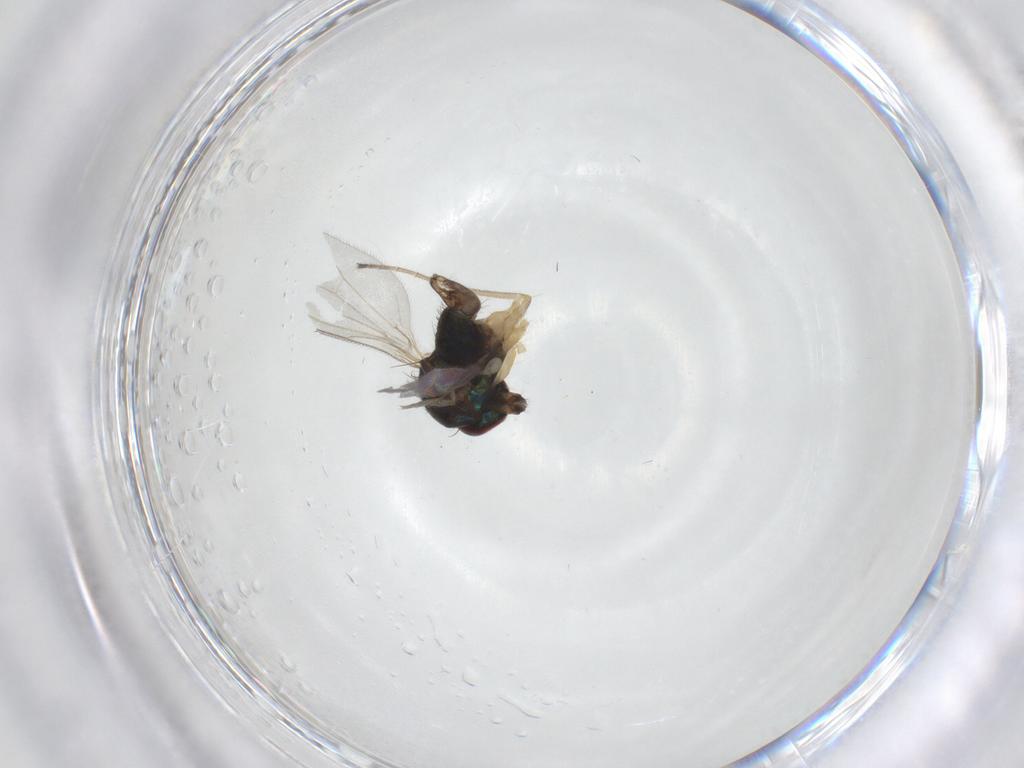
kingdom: Animalia
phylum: Arthropoda
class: Insecta
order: Diptera
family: Dolichopodidae
